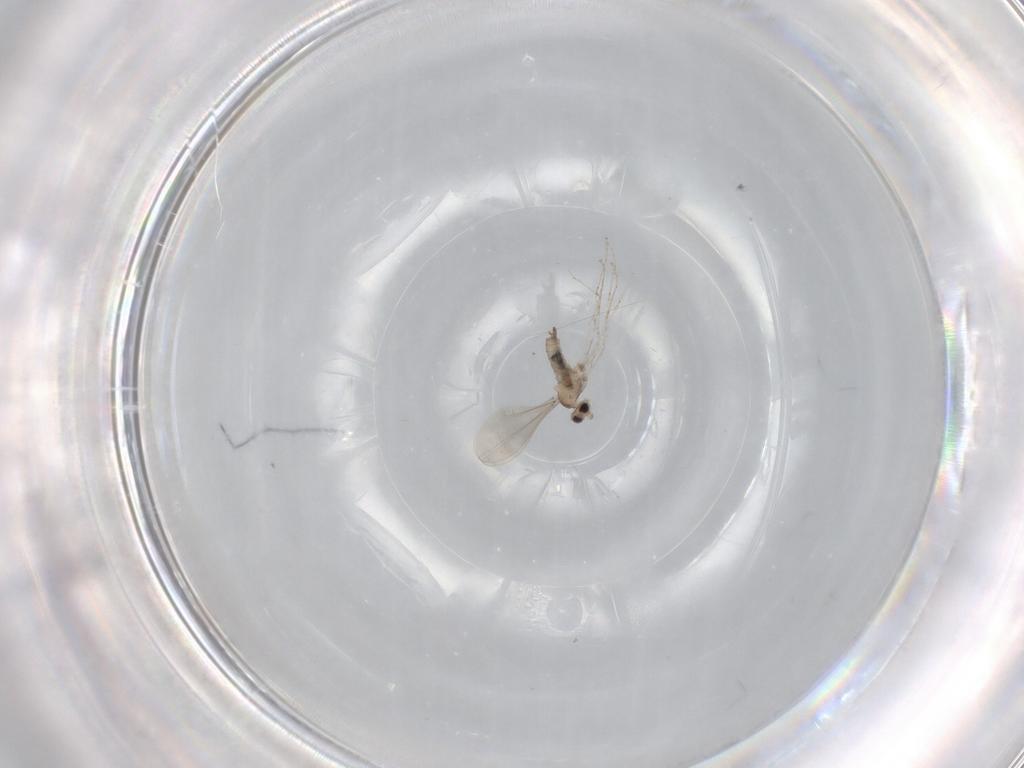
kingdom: Animalia
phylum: Arthropoda
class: Insecta
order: Diptera
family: Cecidomyiidae
